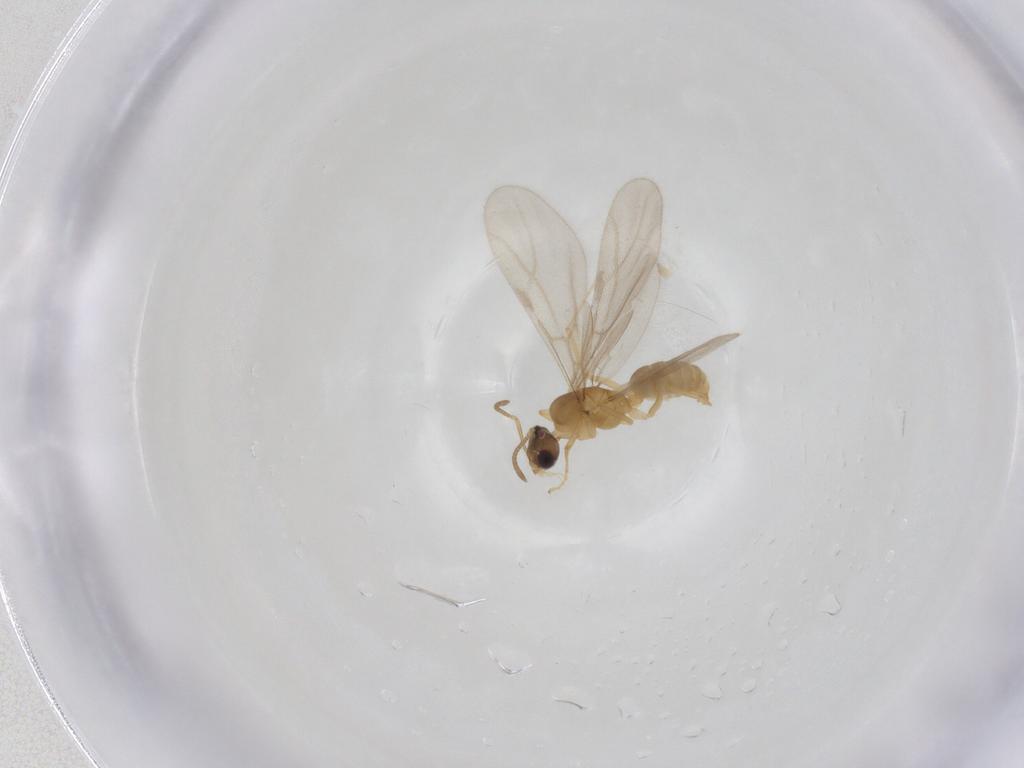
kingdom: Animalia
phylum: Arthropoda
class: Insecta
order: Hymenoptera
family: Formicidae
